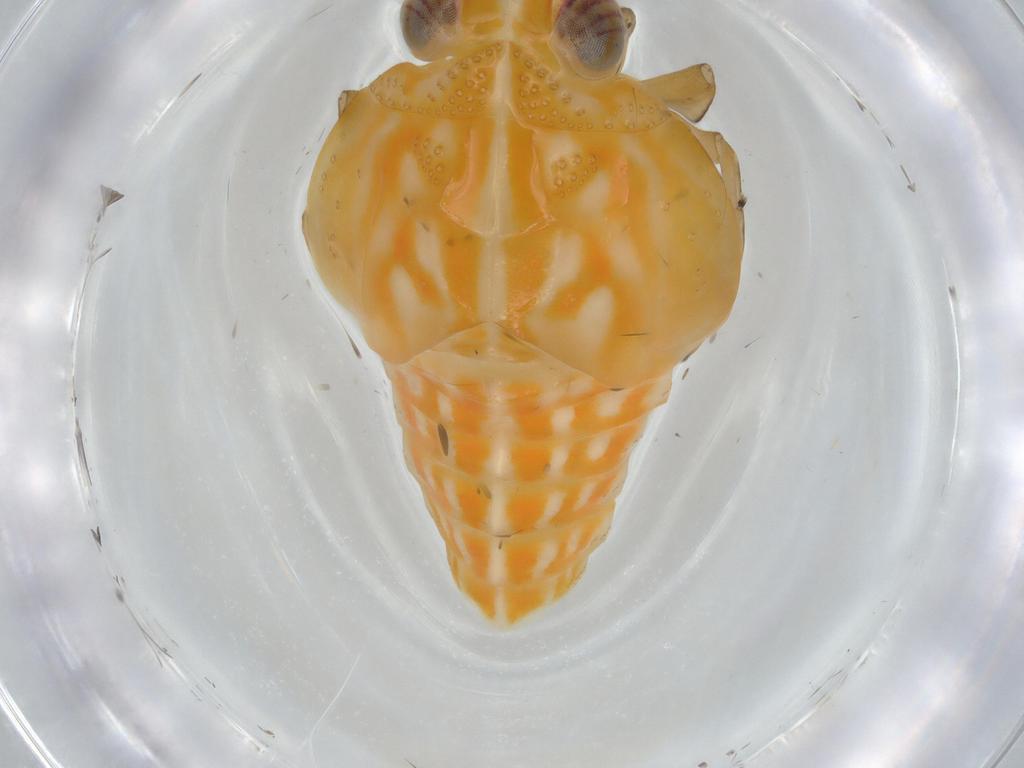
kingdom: Animalia
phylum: Arthropoda
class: Insecta
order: Hemiptera
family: Issidae
